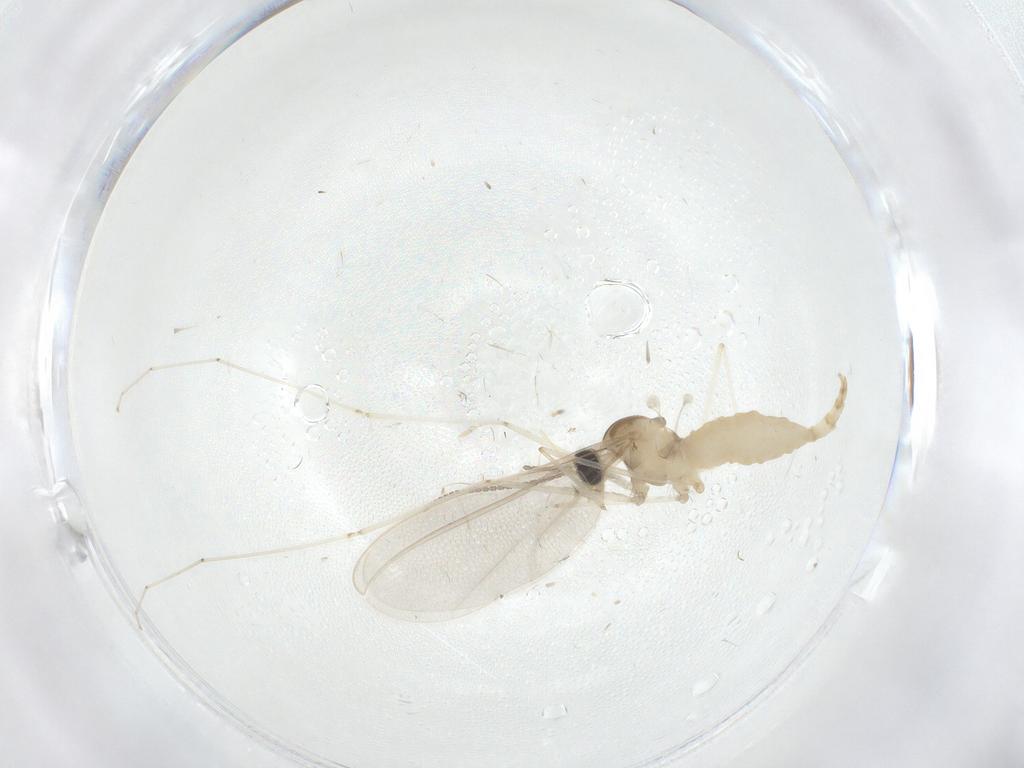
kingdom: Animalia
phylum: Arthropoda
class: Insecta
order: Diptera
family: Cecidomyiidae
